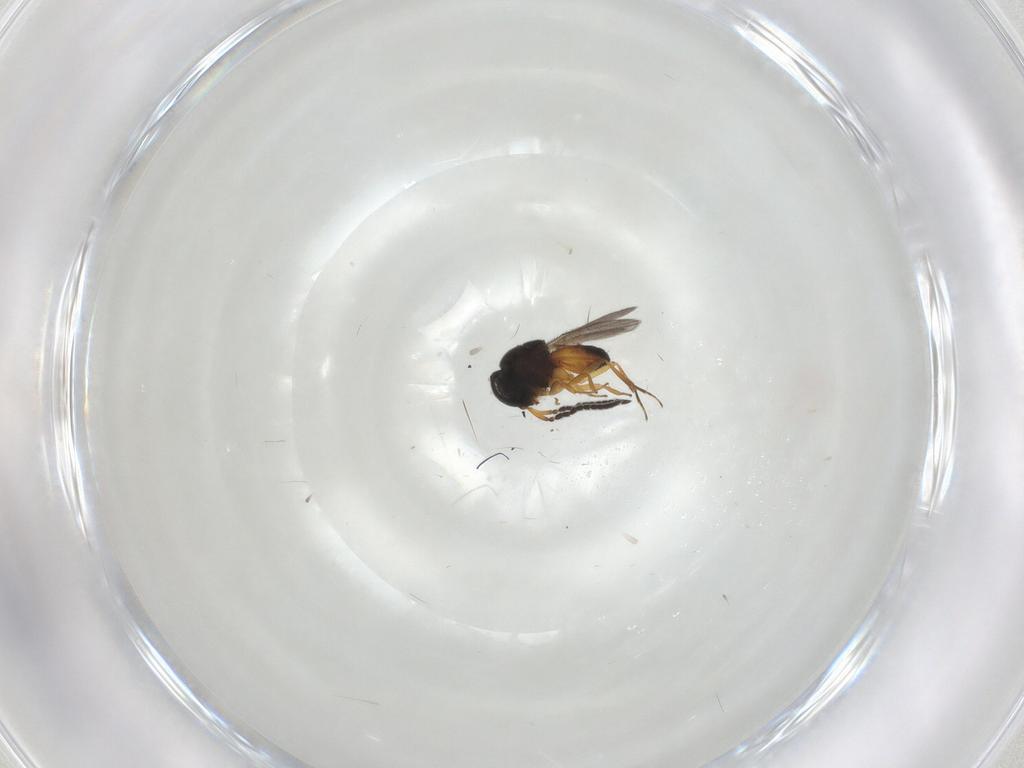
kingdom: Animalia
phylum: Arthropoda
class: Insecta
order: Hymenoptera
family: Scelionidae
